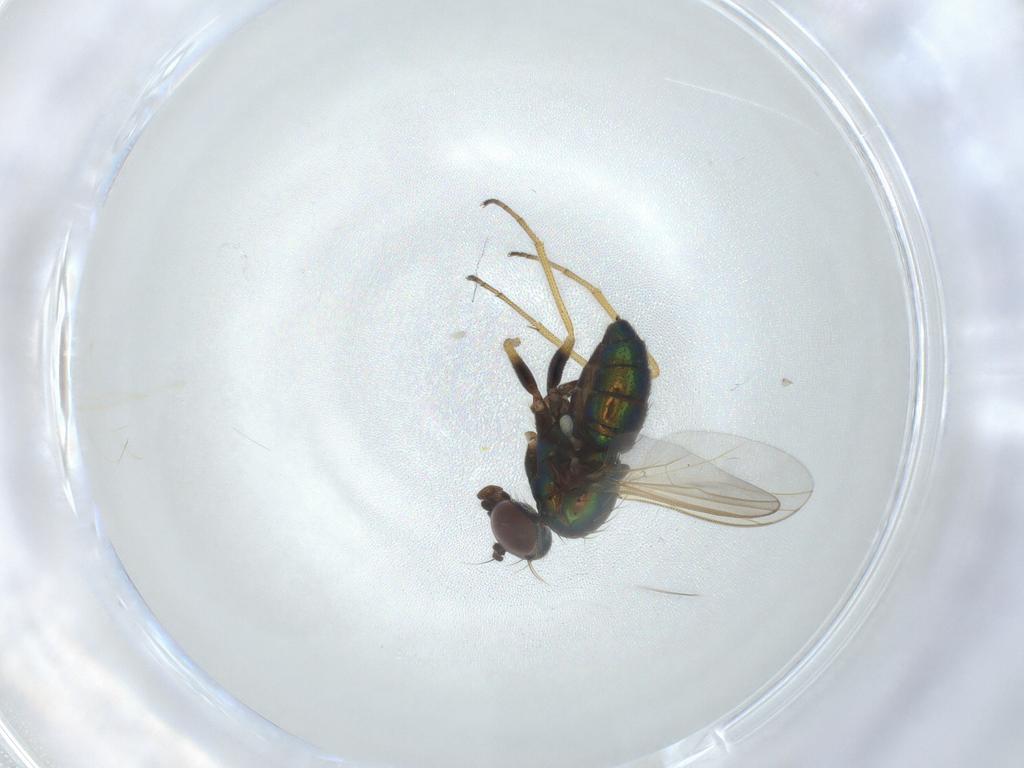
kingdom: Animalia
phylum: Arthropoda
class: Insecta
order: Diptera
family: Dolichopodidae
